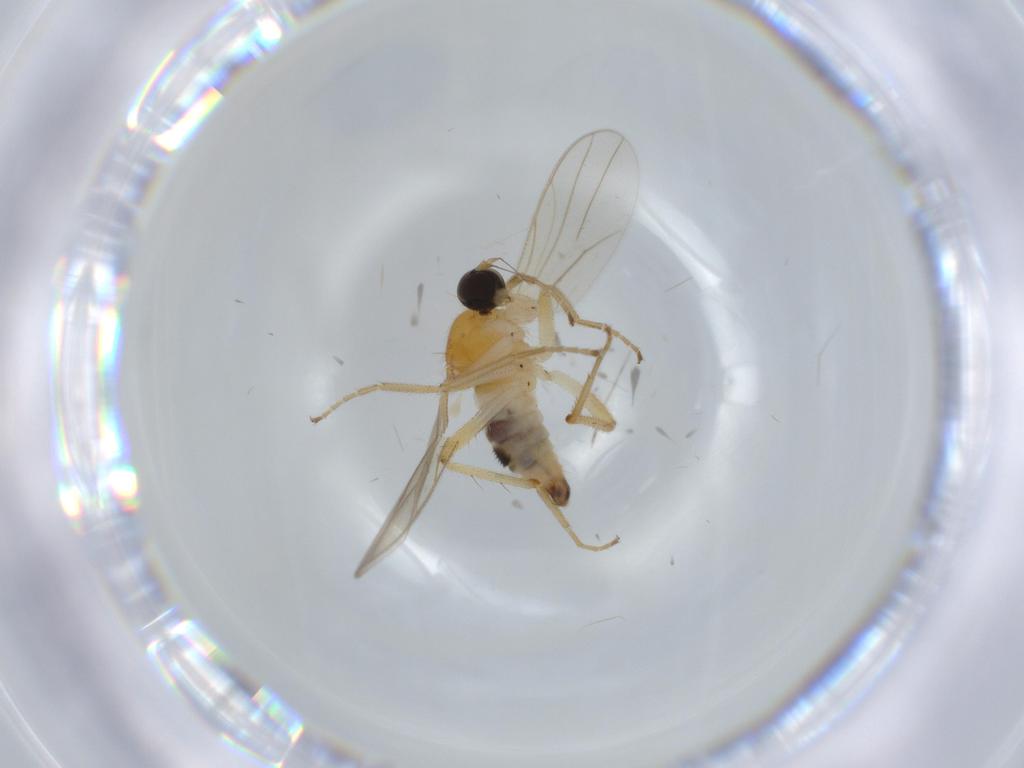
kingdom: Animalia
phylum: Arthropoda
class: Insecta
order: Diptera
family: Hybotidae
